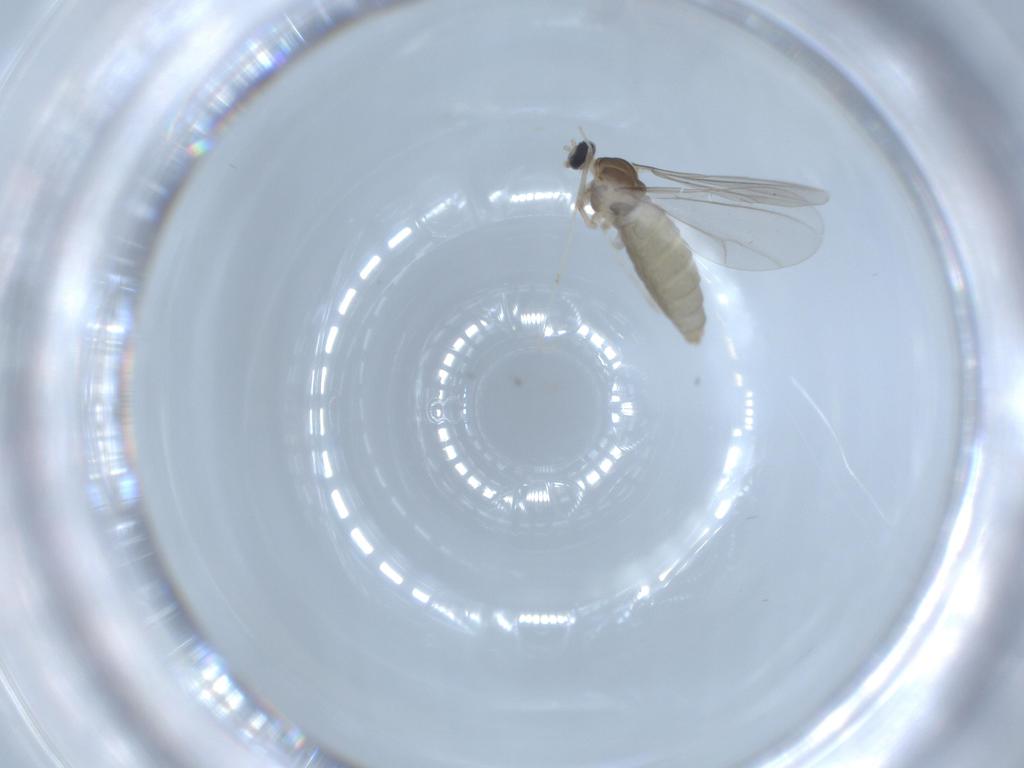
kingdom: Animalia
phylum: Arthropoda
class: Insecta
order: Diptera
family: Cecidomyiidae
